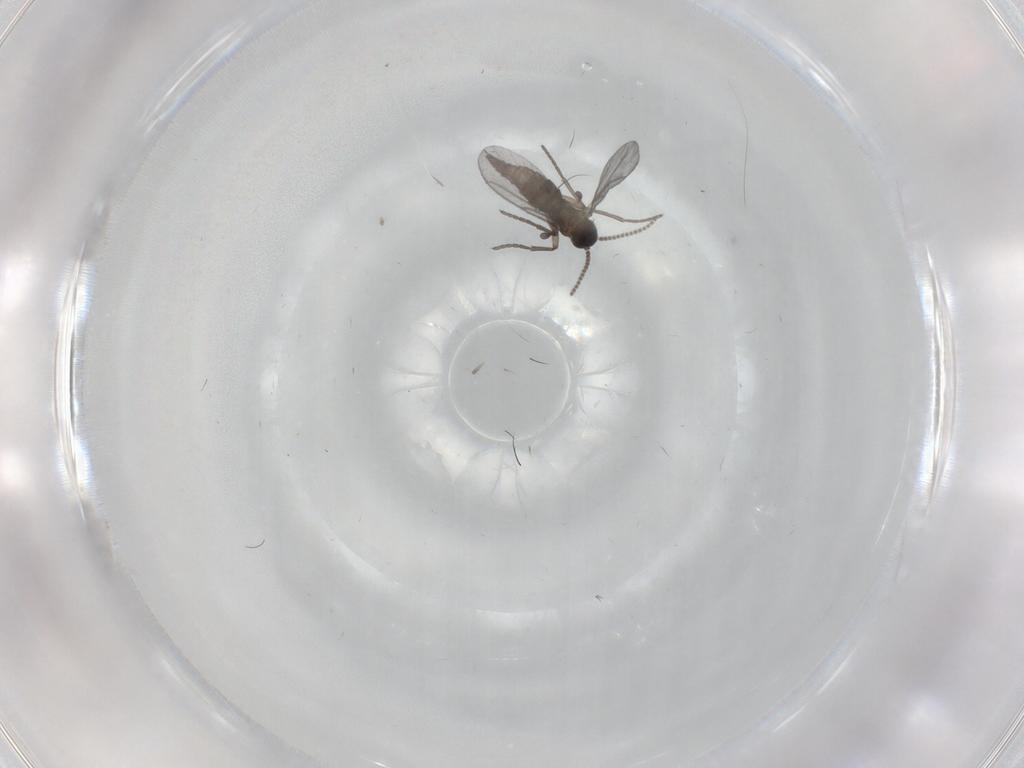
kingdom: Animalia
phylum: Arthropoda
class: Insecta
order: Diptera
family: Sciaridae
